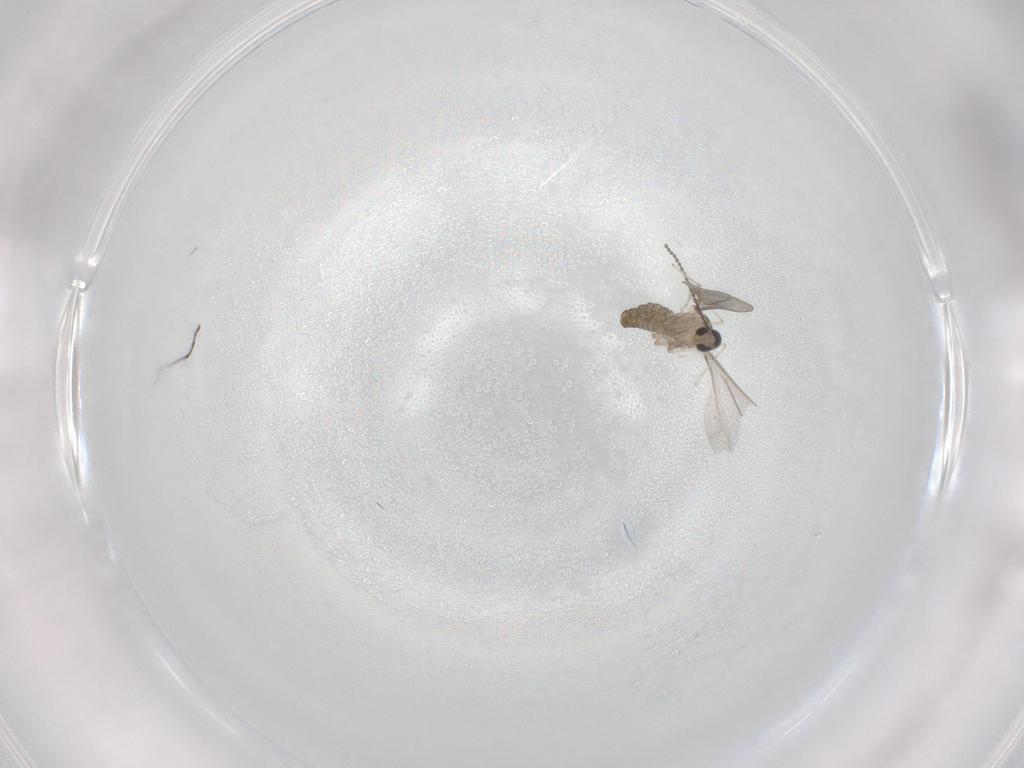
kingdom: Animalia
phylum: Arthropoda
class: Insecta
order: Diptera
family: Cecidomyiidae
